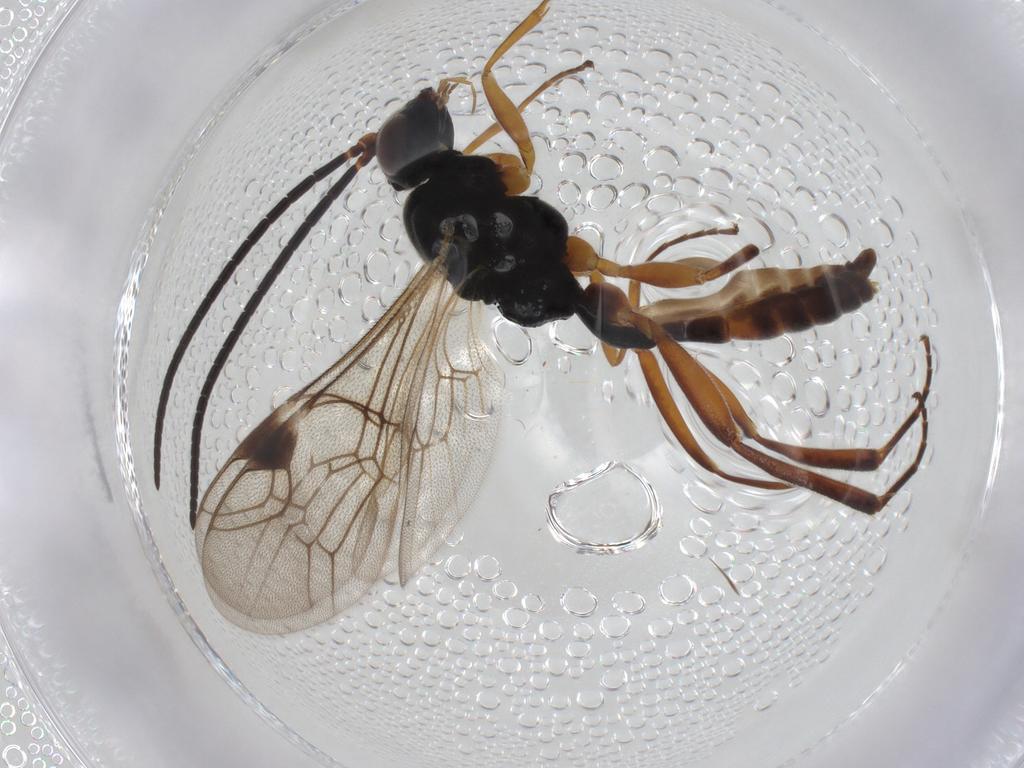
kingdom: Animalia
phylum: Arthropoda
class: Insecta
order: Hymenoptera
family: Ichneumonidae
